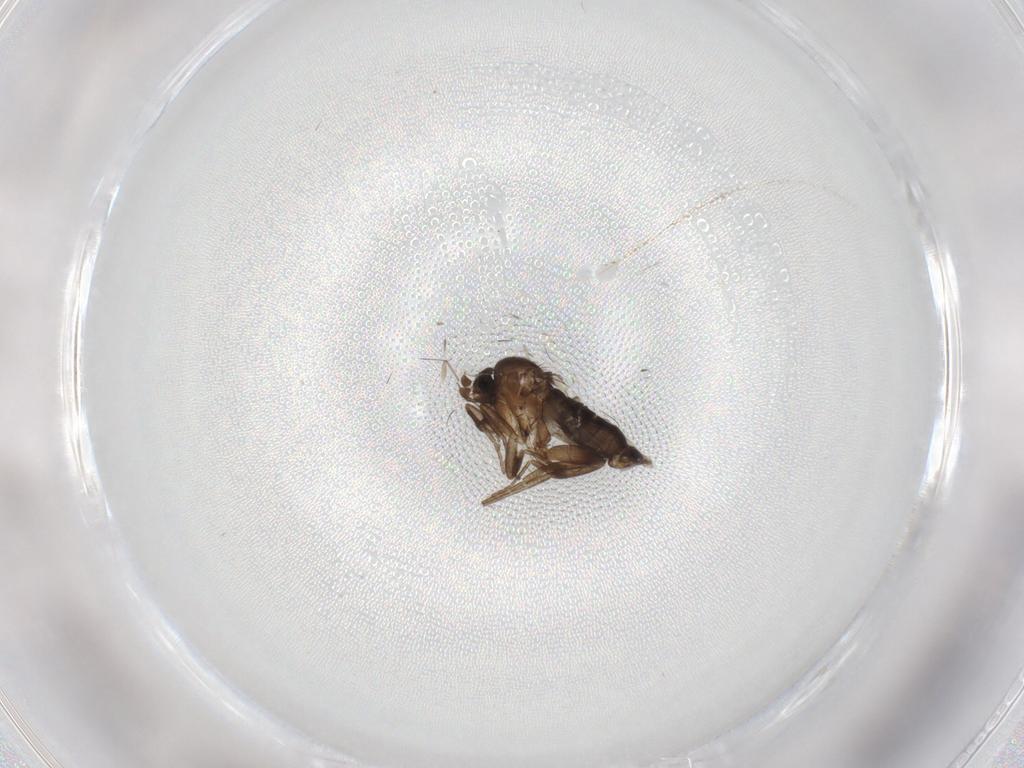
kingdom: Animalia
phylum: Arthropoda
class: Insecta
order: Diptera
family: Phoridae
